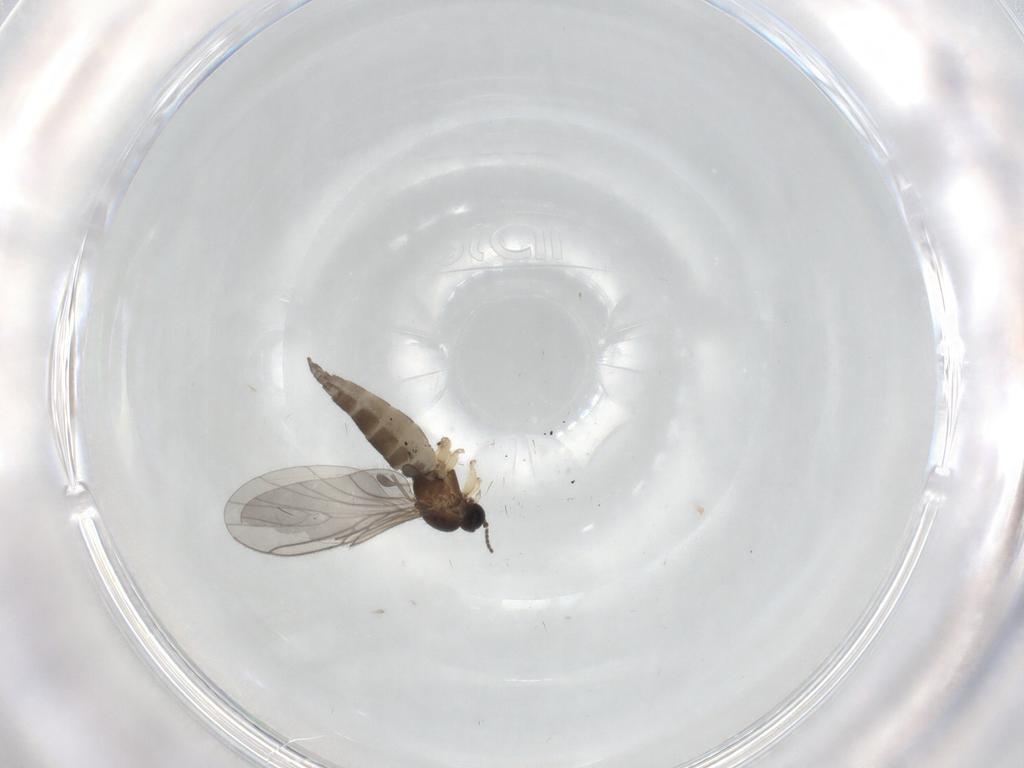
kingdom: Animalia
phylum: Arthropoda
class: Insecta
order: Diptera
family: Sciaridae
